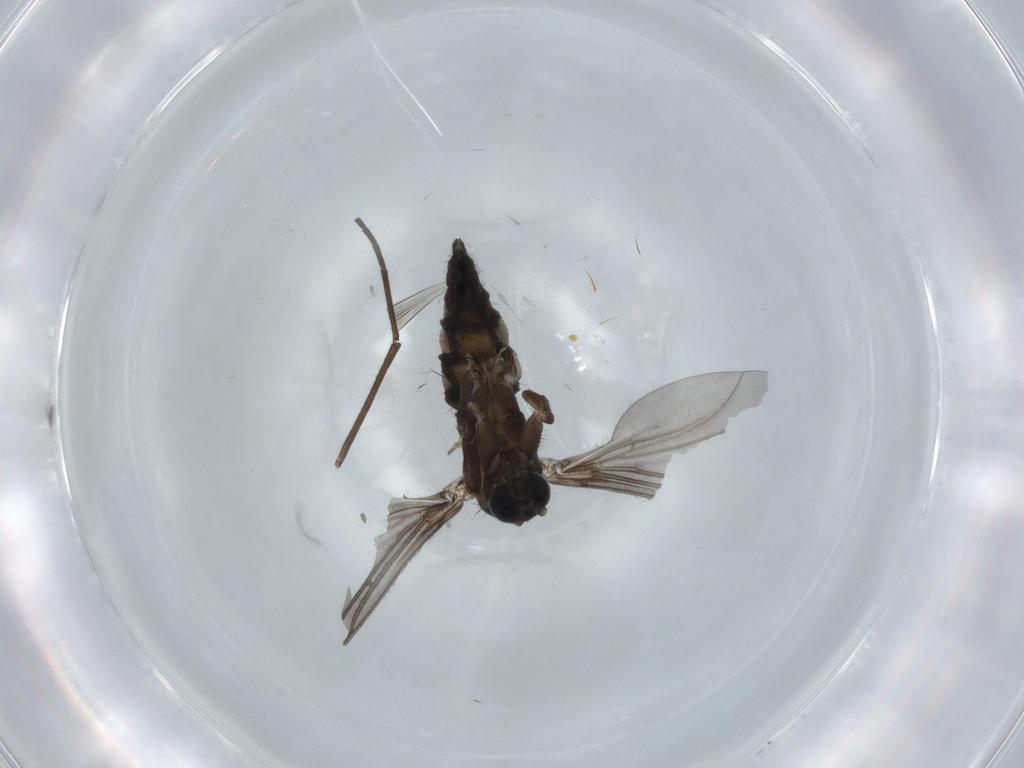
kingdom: Animalia
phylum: Arthropoda
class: Insecta
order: Diptera
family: Sciaridae
